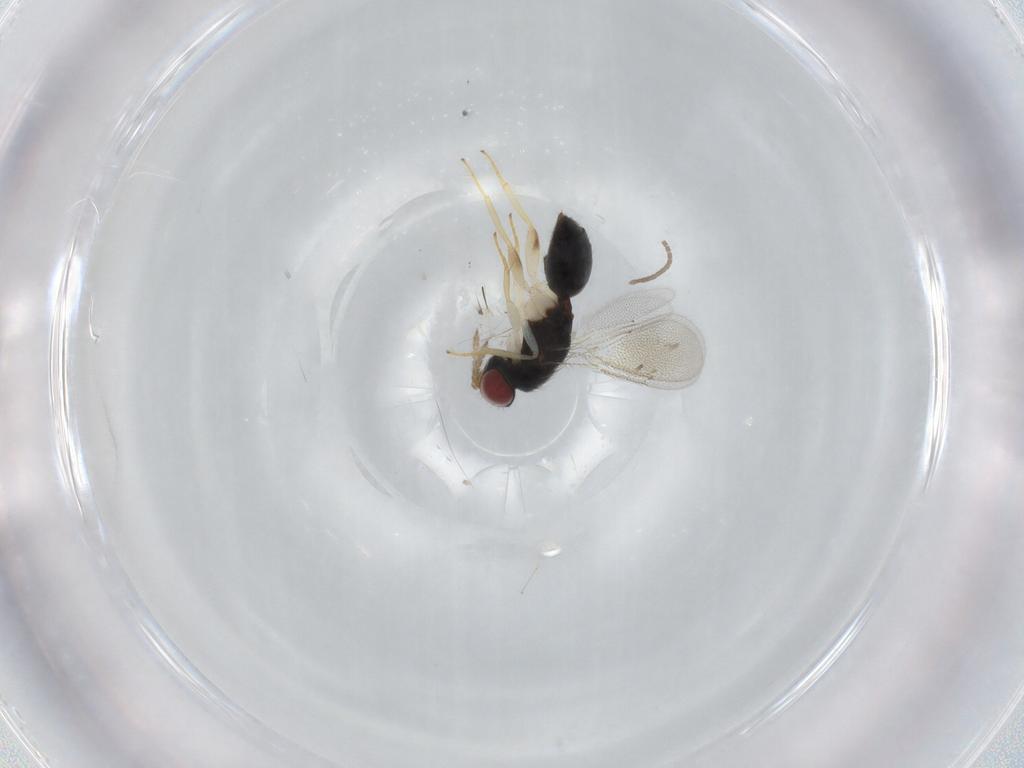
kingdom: Animalia
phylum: Arthropoda
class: Insecta
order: Hymenoptera
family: Eulophidae
